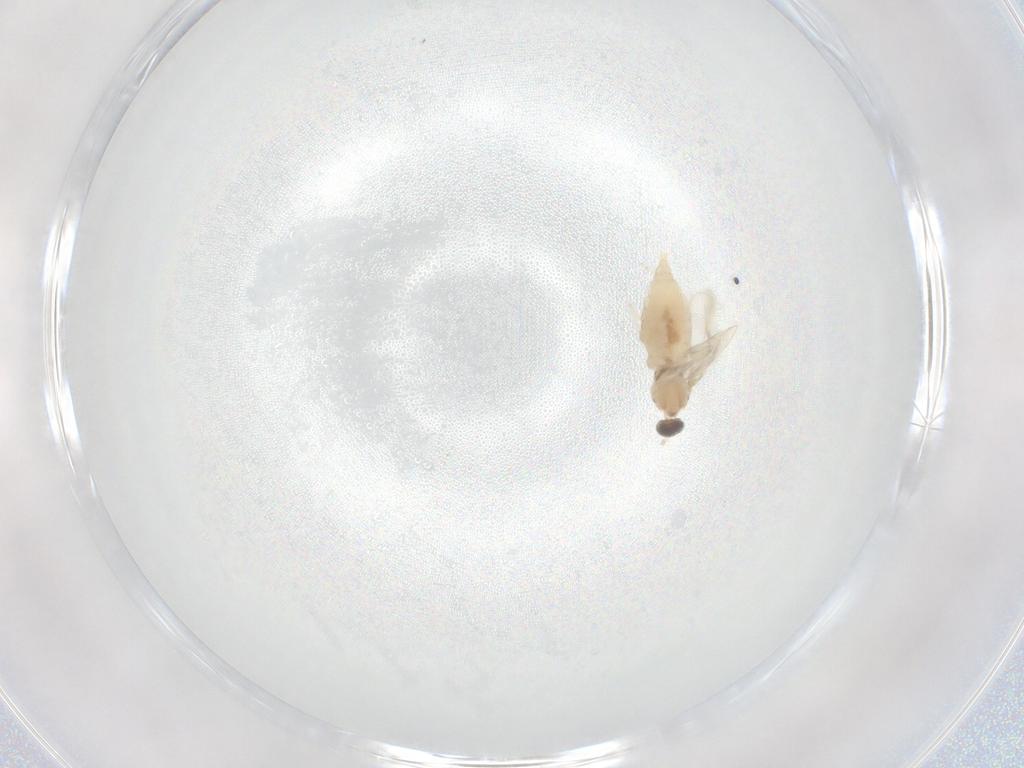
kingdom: Animalia
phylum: Arthropoda
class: Insecta
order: Diptera
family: Cecidomyiidae
